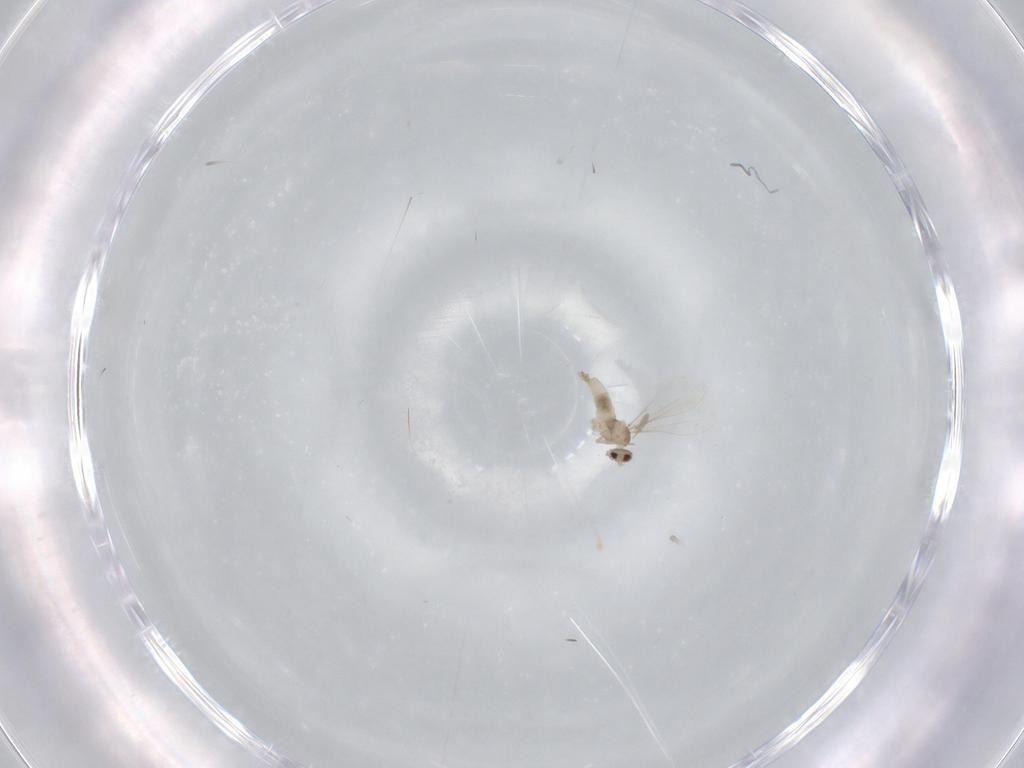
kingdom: Animalia
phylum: Arthropoda
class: Insecta
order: Diptera
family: Cecidomyiidae
